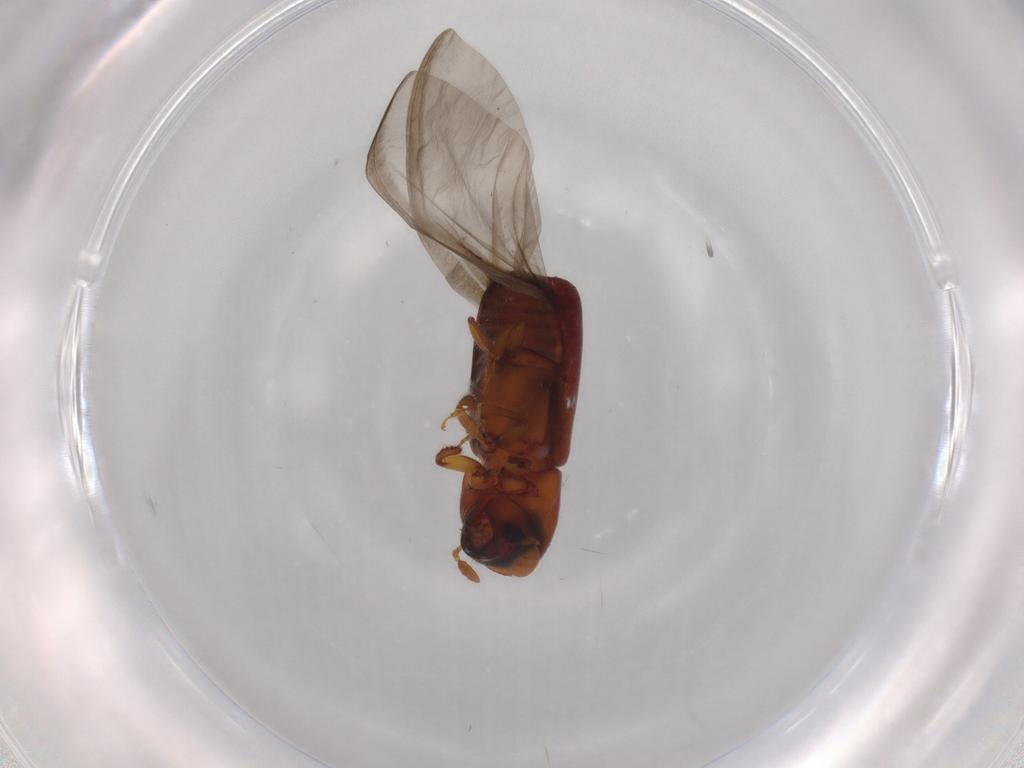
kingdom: Animalia
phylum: Arthropoda
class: Insecta
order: Coleoptera
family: Curculionidae
